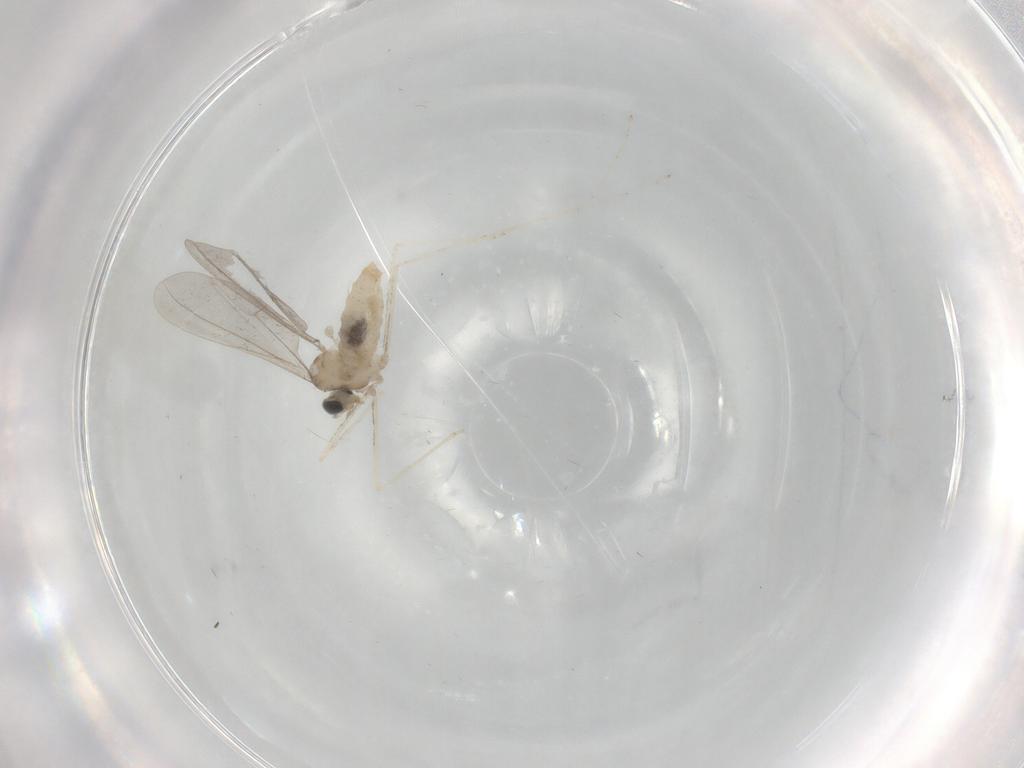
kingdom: Animalia
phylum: Arthropoda
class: Insecta
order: Diptera
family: Cecidomyiidae
